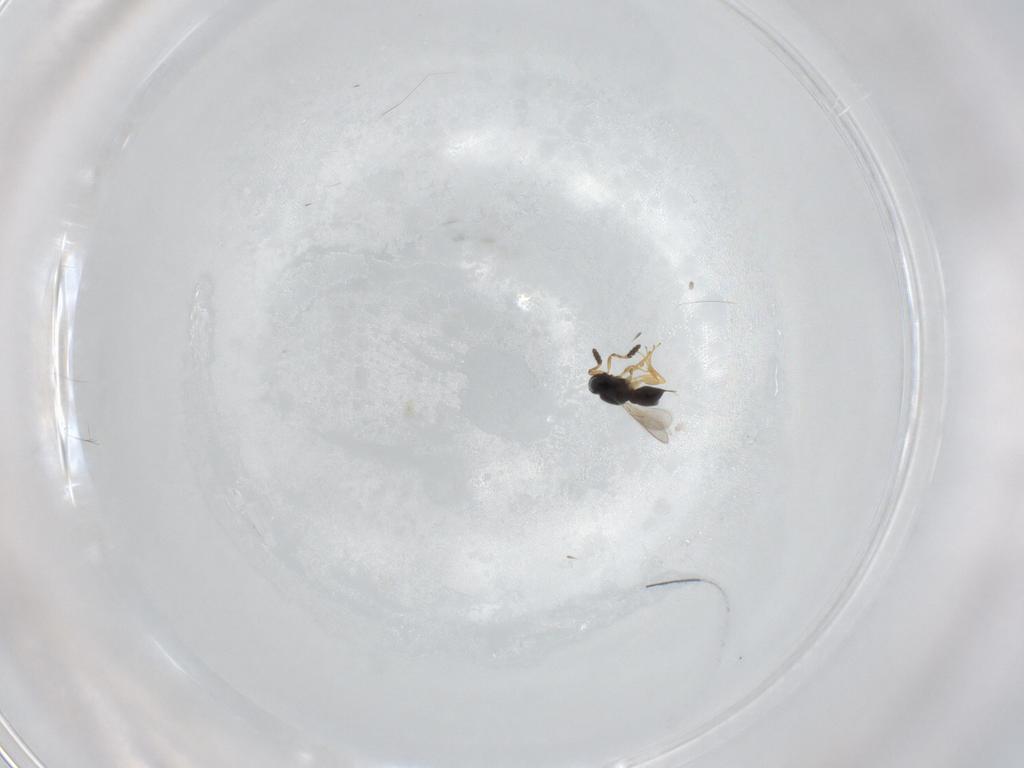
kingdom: Animalia
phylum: Arthropoda
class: Insecta
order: Hymenoptera
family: Scelionidae
